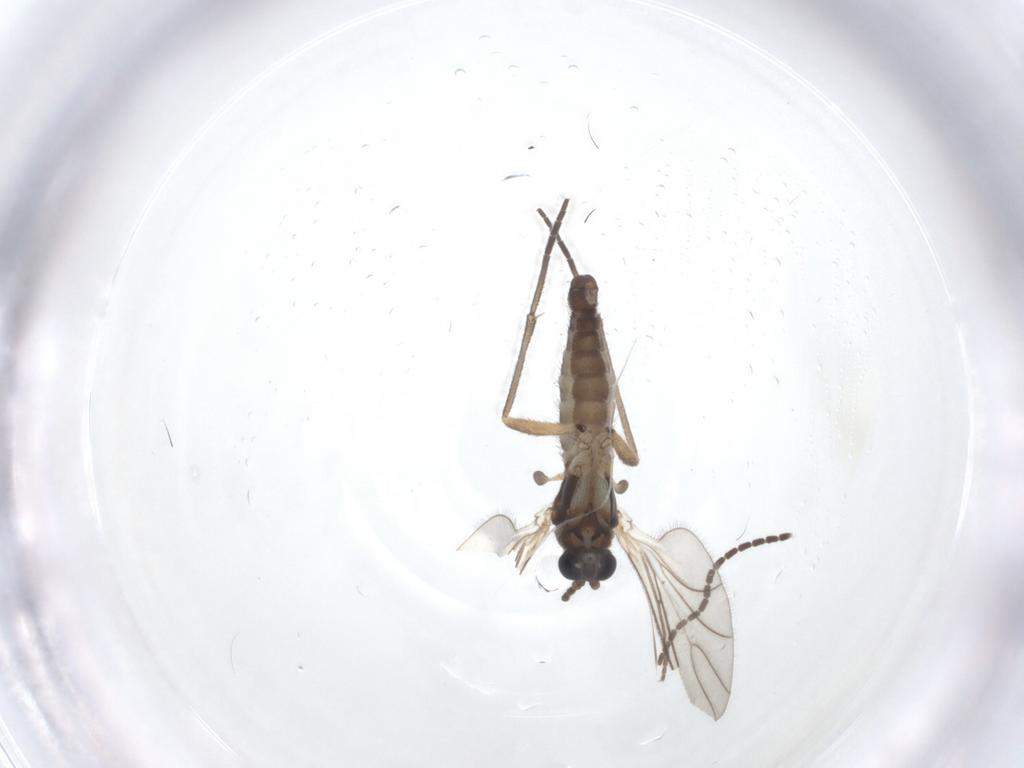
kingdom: Animalia
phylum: Arthropoda
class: Insecta
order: Diptera
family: Sciaridae
